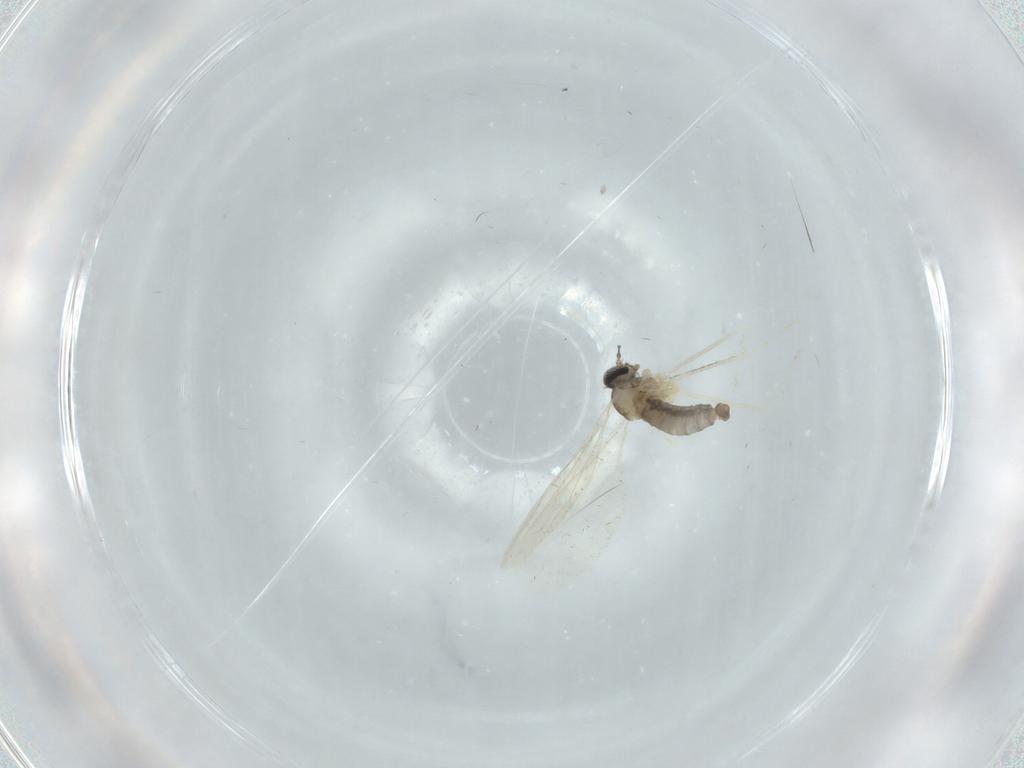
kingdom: Animalia
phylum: Arthropoda
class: Insecta
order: Diptera
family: Cecidomyiidae
